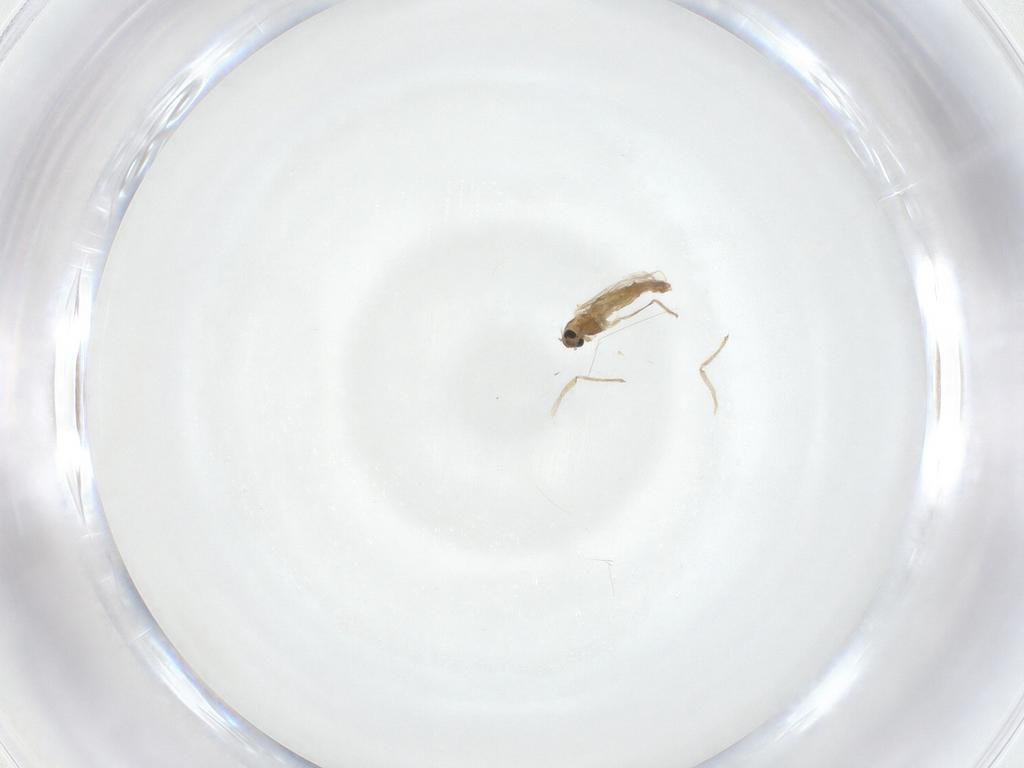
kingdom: Animalia
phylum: Arthropoda
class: Insecta
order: Diptera
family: Chironomidae
